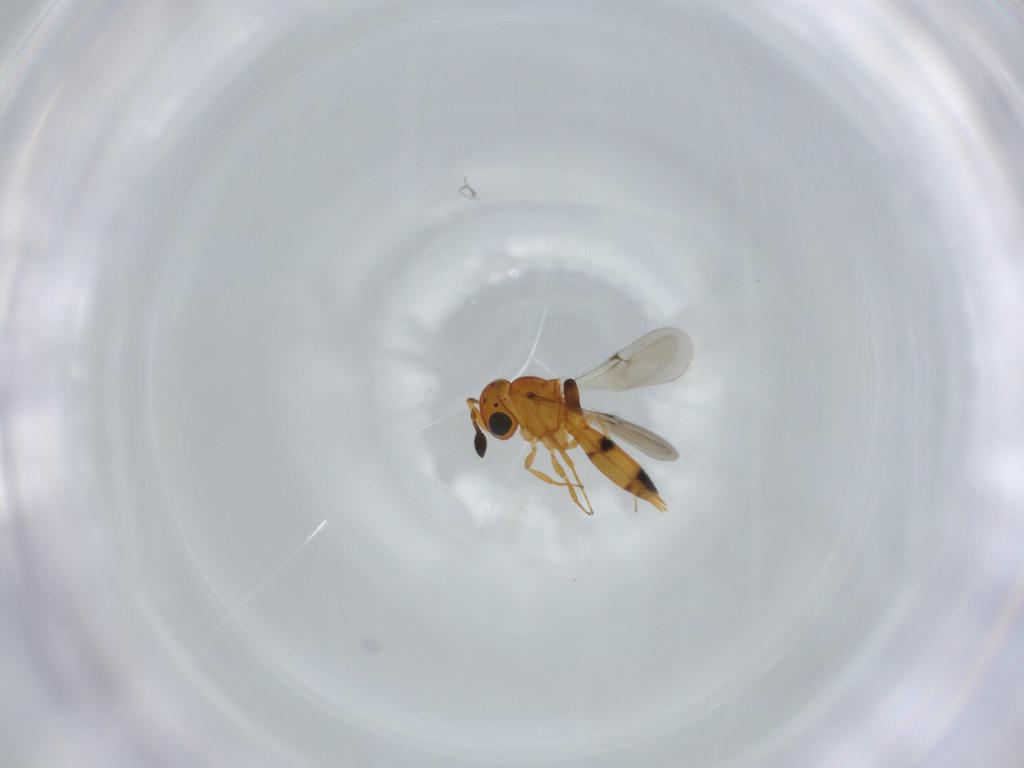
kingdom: Animalia
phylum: Arthropoda
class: Insecta
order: Hymenoptera
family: Scelionidae
